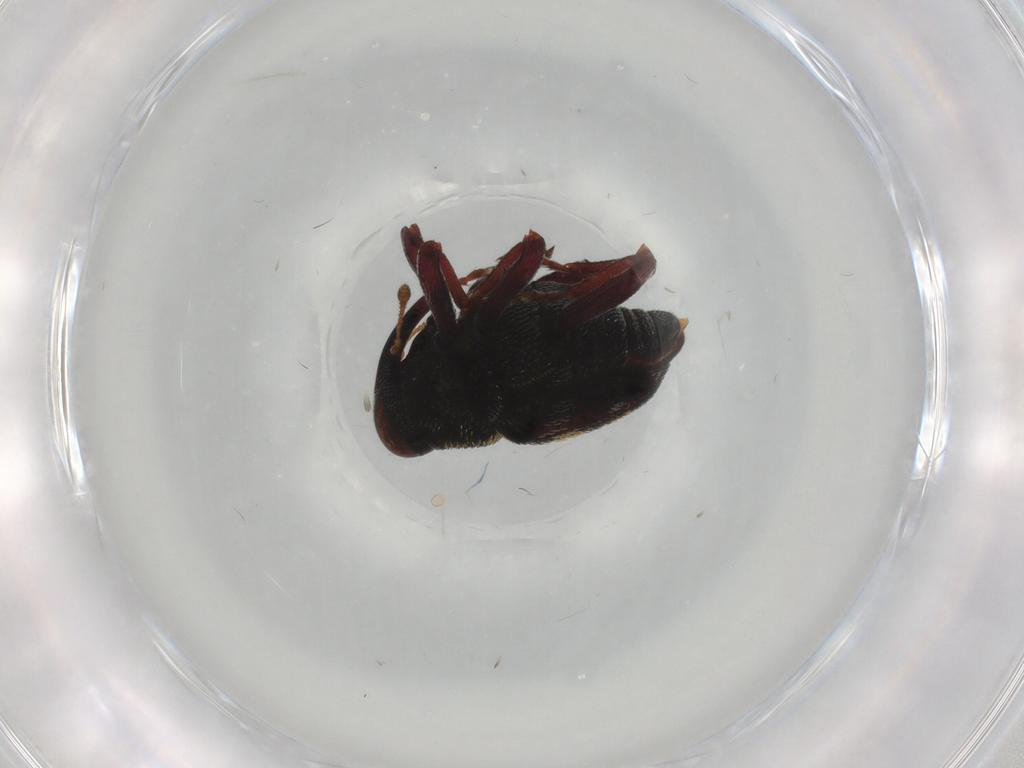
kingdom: Animalia
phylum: Arthropoda
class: Insecta
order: Coleoptera
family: Curculionidae
